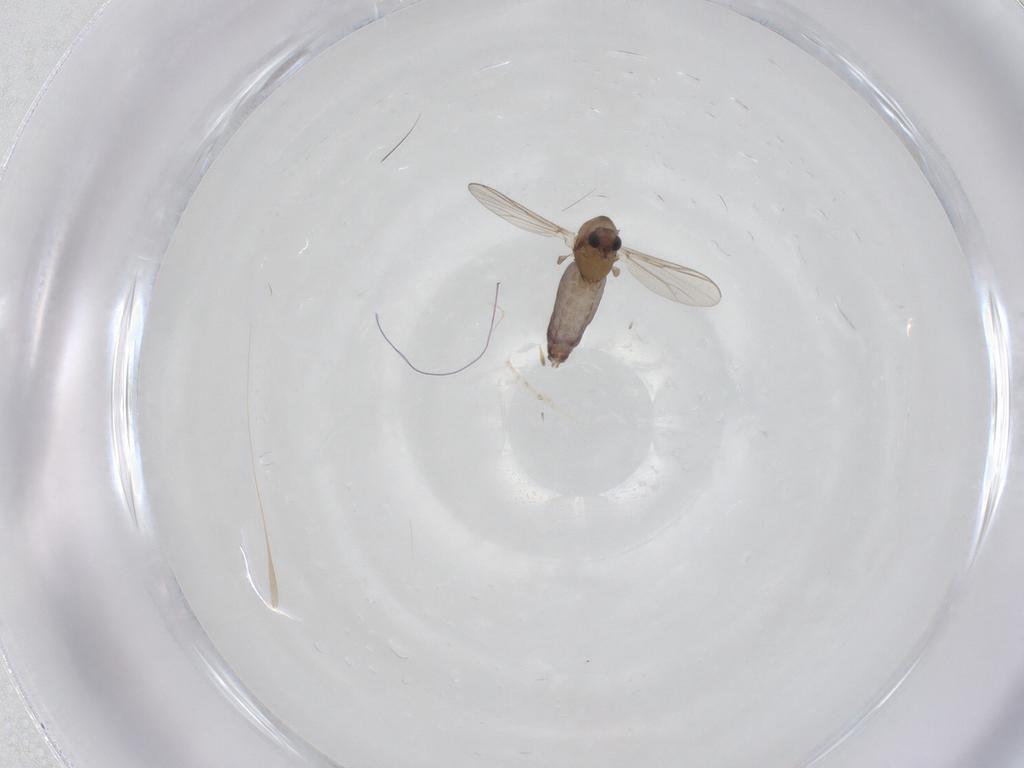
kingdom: Animalia
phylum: Arthropoda
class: Insecta
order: Diptera
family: Chironomidae
